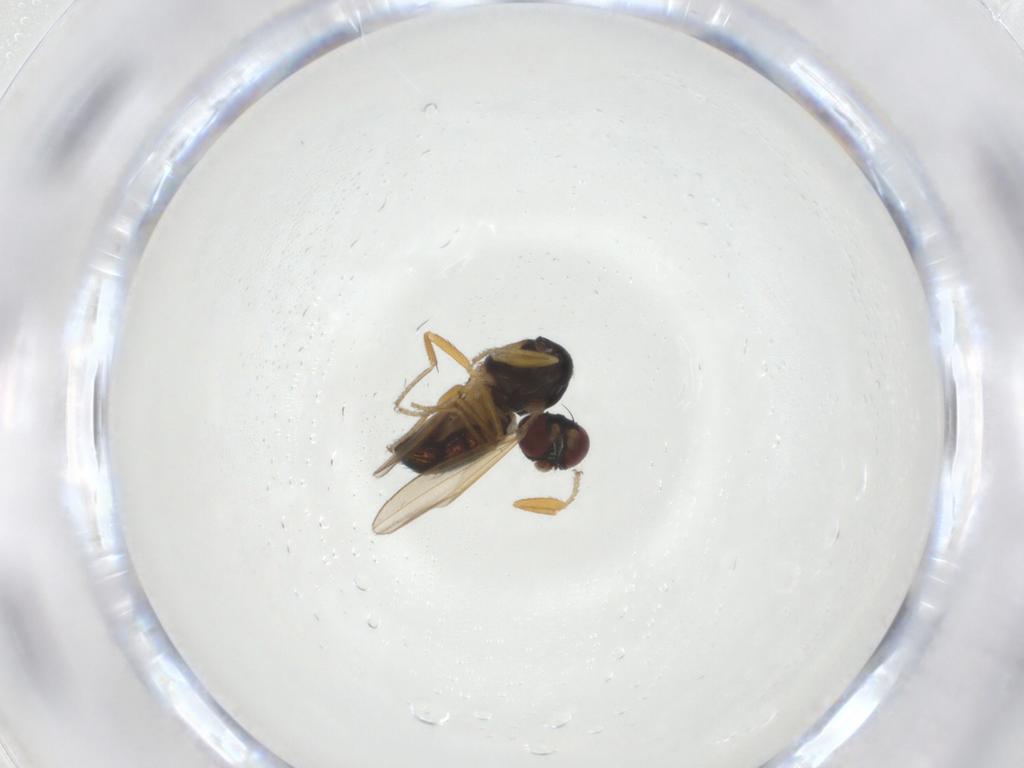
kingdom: Animalia
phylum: Arthropoda
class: Insecta
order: Diptera
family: Ephydridae
